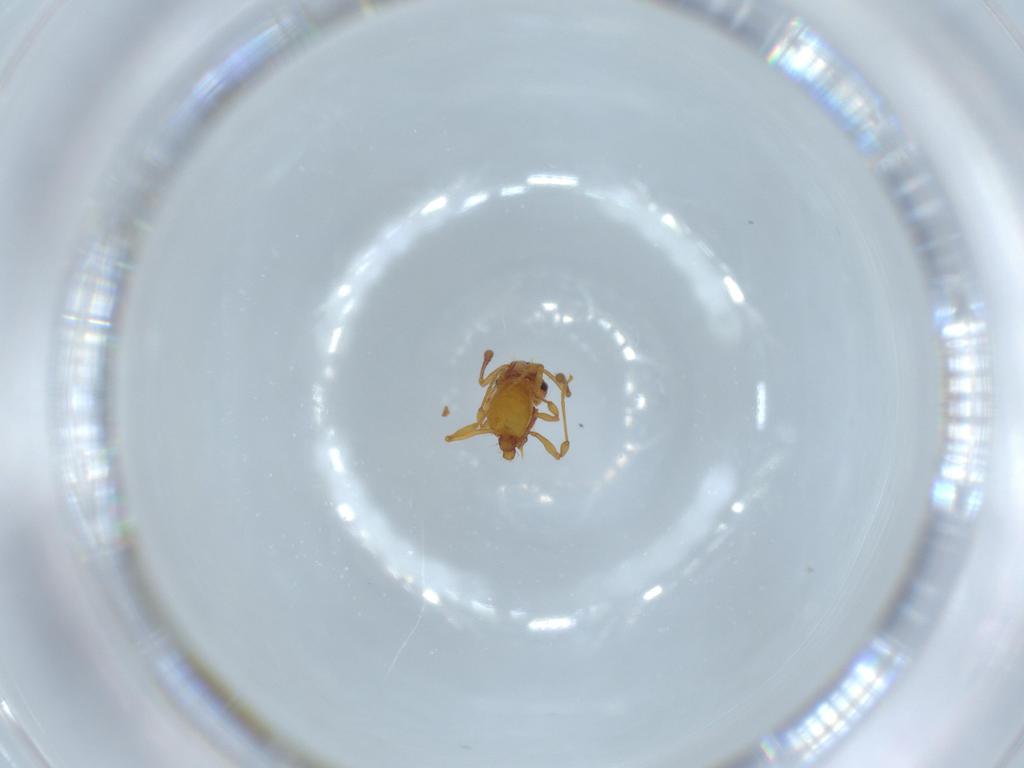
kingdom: Animalia
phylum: Arthropoda
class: Insecta
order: Hymenoptera
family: Formicidae
